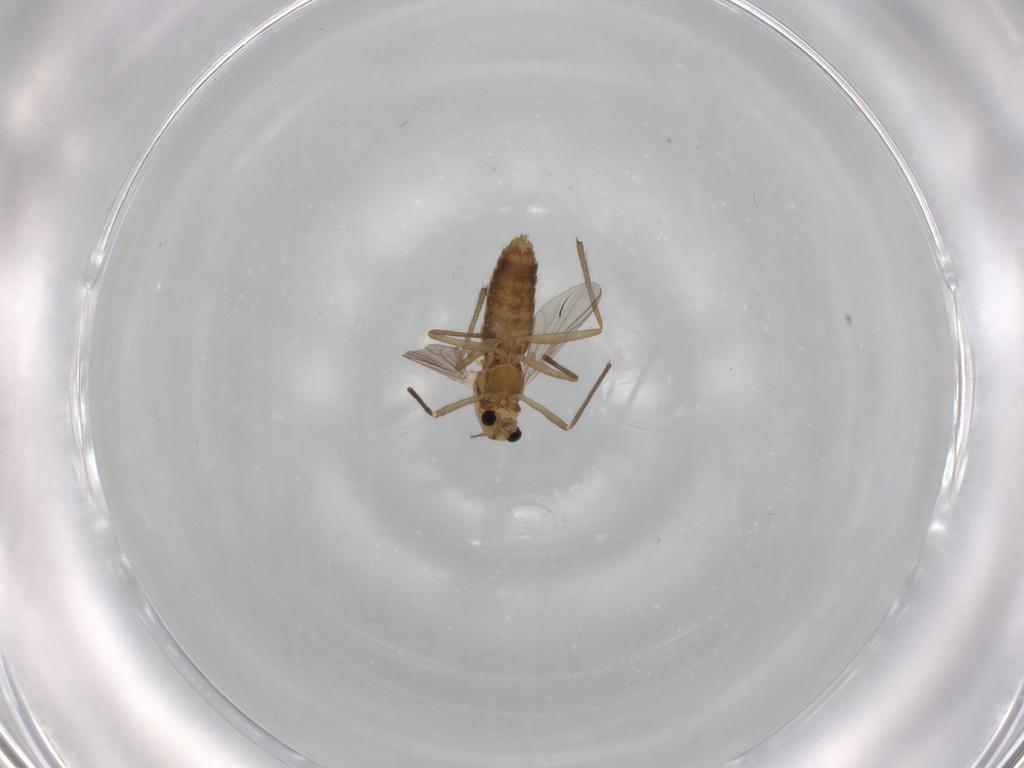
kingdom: Animalia
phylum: Arthropoda
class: Insecta
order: Diptera
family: Chironomidae
